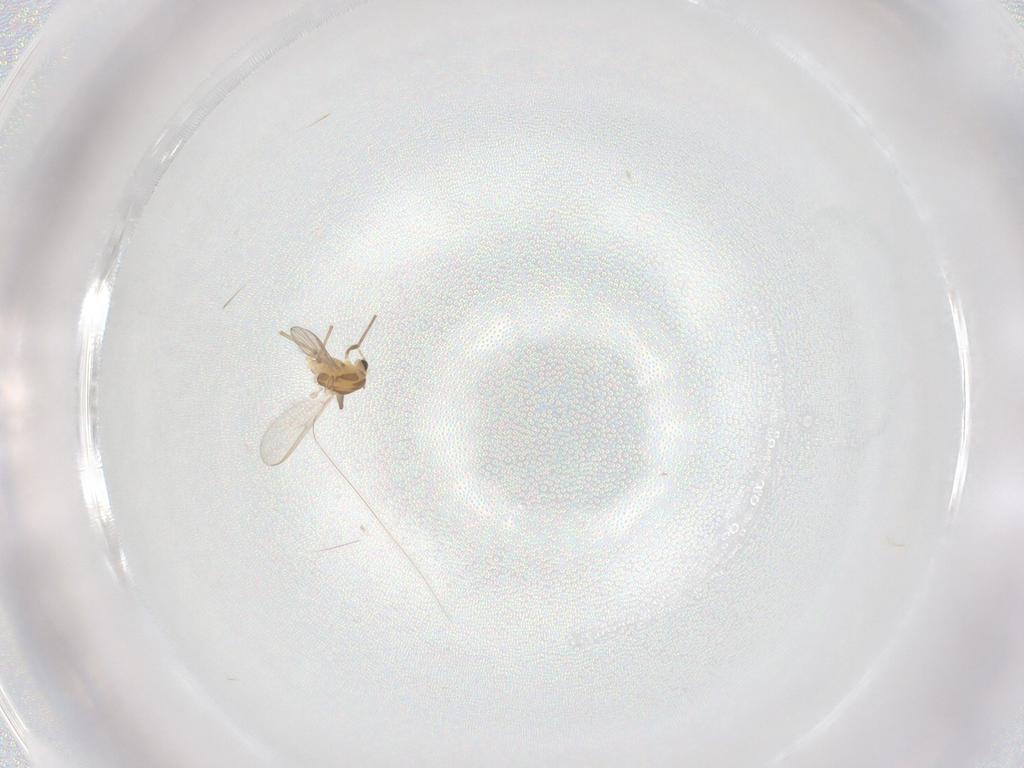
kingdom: Animalia
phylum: Arthropoda
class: Insecta
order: Diptera
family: Chironomidae
